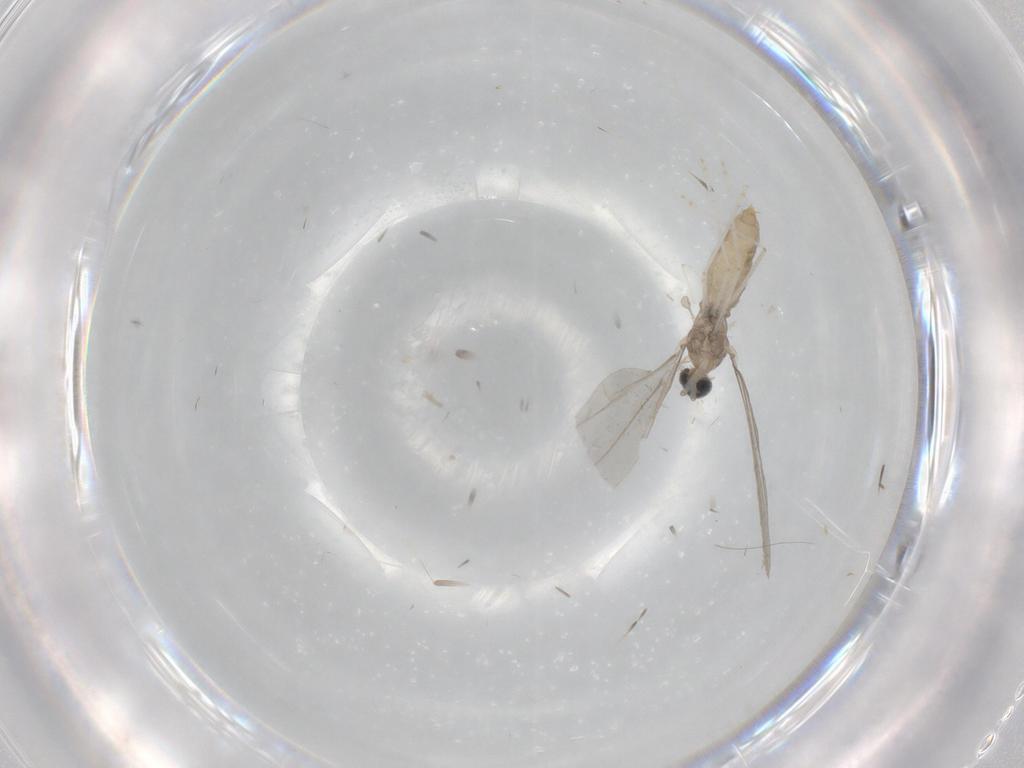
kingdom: Animalia
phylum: Arthropoda
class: Insecta
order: Diptera
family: Cecidomyiidae
